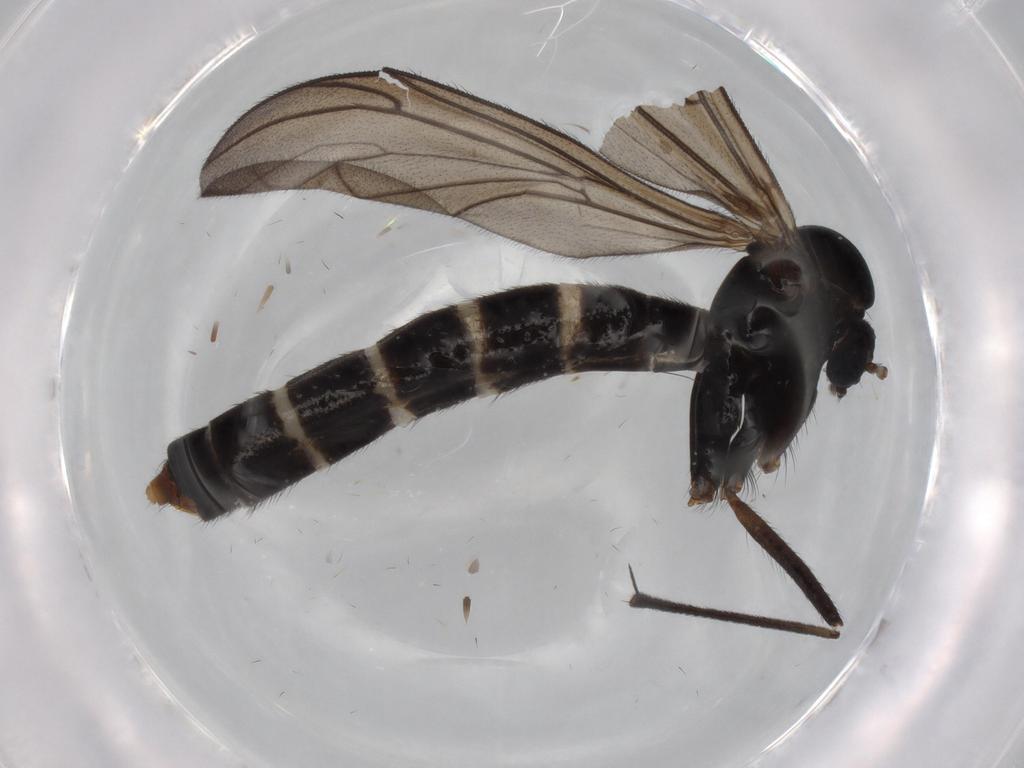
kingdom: Animalia
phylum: Arthropoda
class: Insecta
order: Diptera
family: Ditomyiidae
